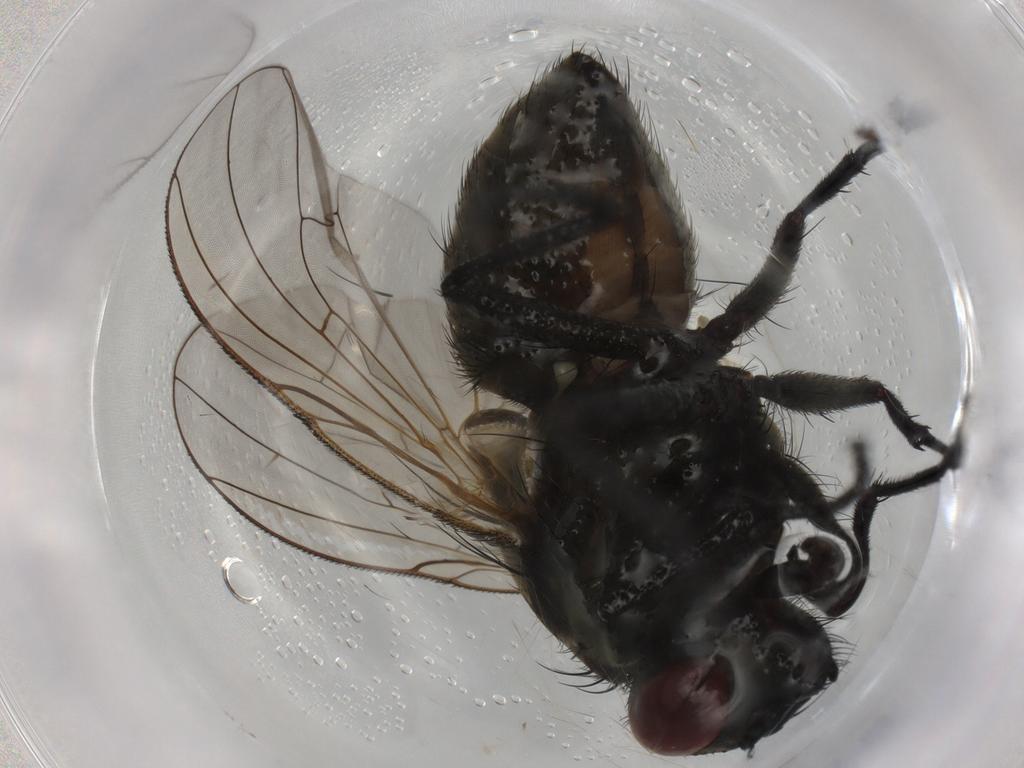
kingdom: Animalia
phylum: Arthropoda
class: Insecta
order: Diptera
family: Muscidae
